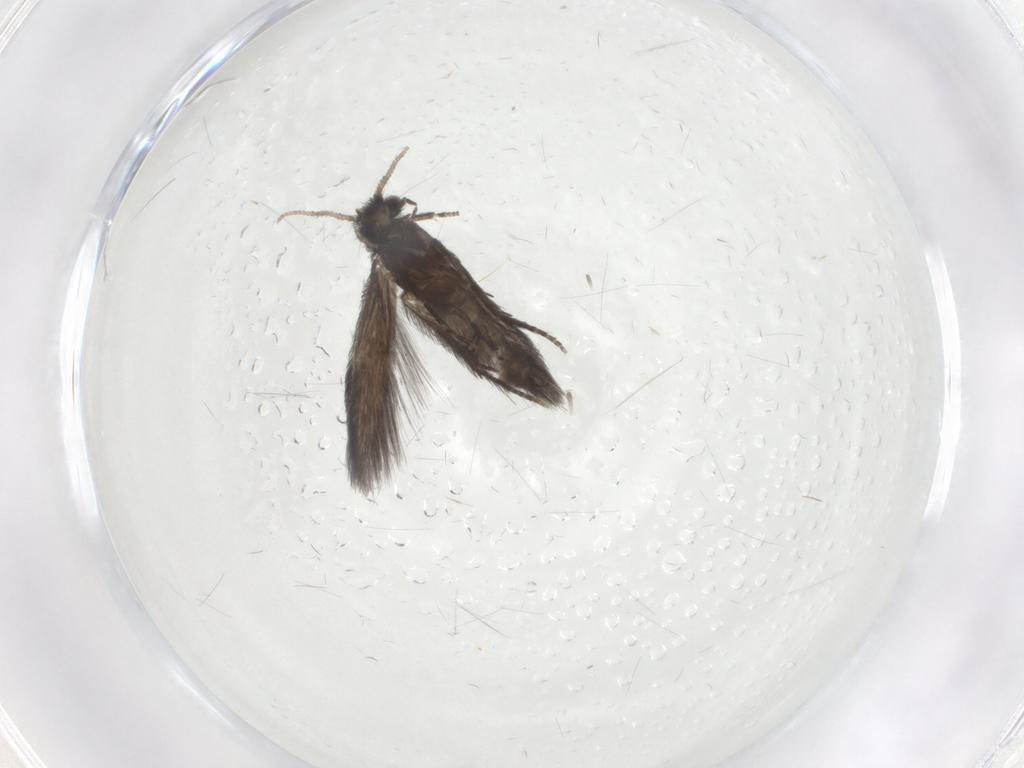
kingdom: Animalia
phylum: Arthropoda
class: Insecta
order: Trichoptera
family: Hydroptilidae
